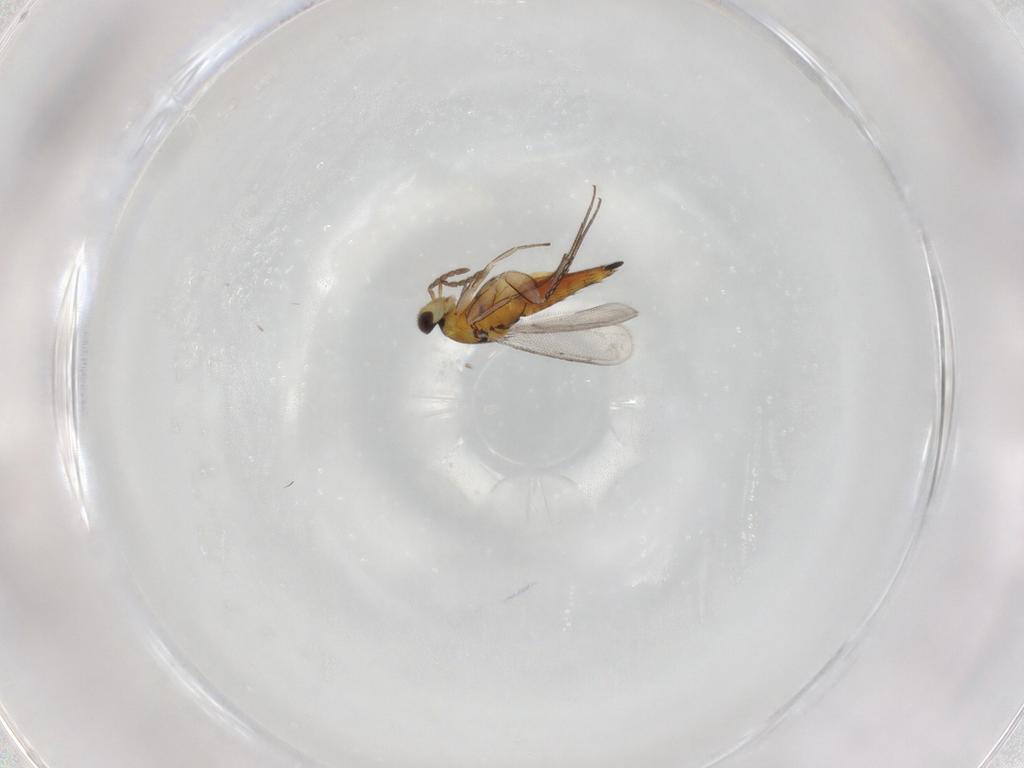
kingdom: Animalia
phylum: Arthropoda
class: Insecta
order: Hymenoptera
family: Eulophidae
